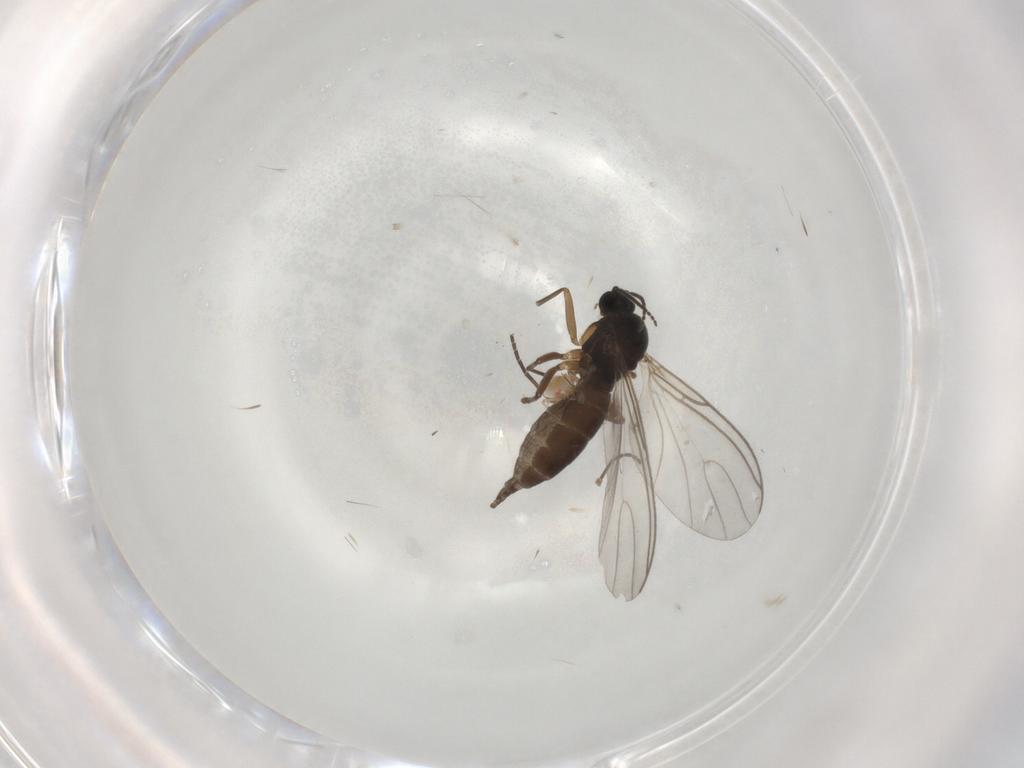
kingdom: Animalia
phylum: Arthropoda
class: Insecta
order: Diptera
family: Sciaridae
